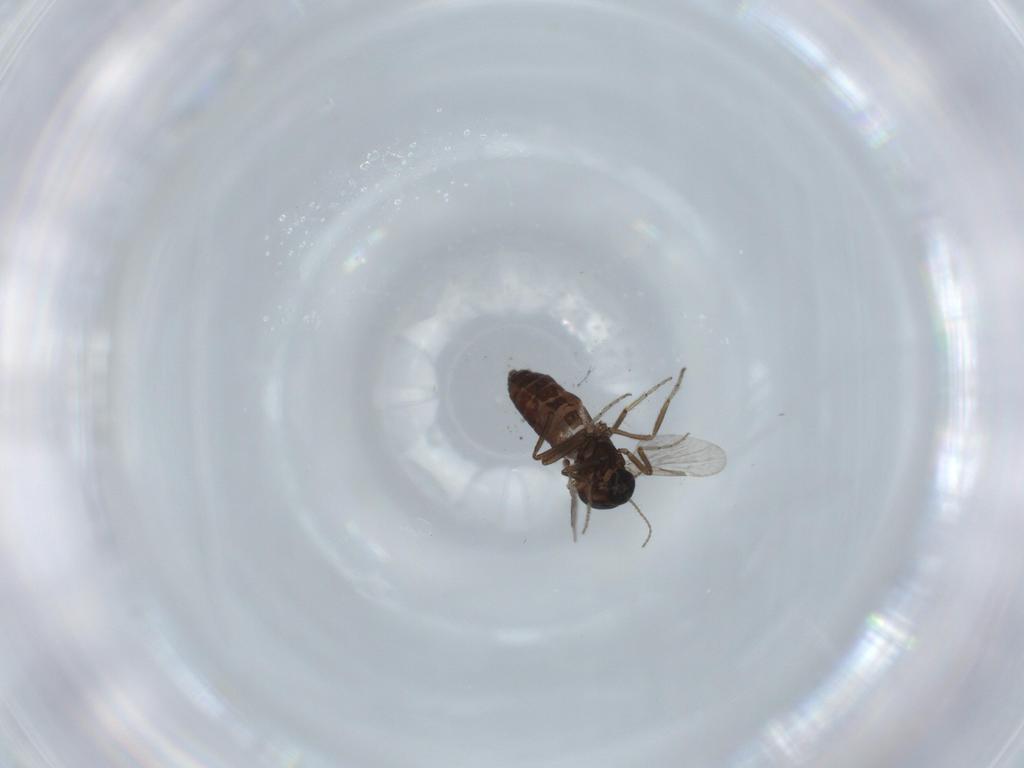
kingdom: Animalia
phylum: Arthropoda
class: Insecta
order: Diptera
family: Ceratopogonidae
